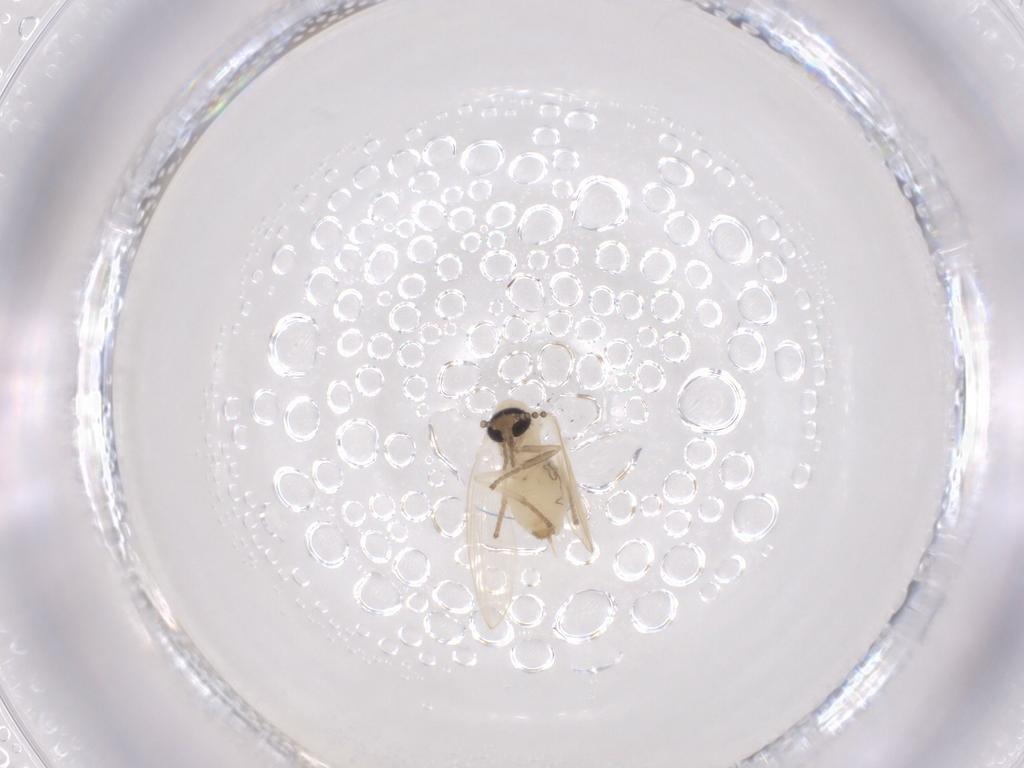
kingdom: Animalia
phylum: Arthropoda
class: Insecta
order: Diptera
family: Psychodidae
